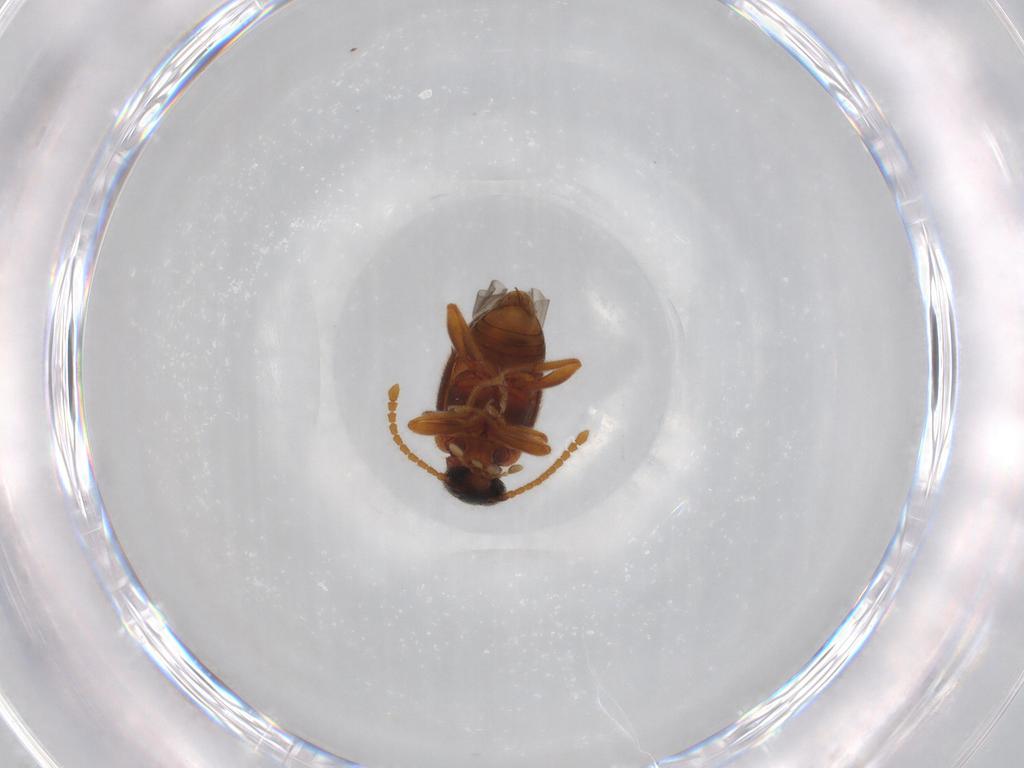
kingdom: Animalia
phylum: Arthropoda
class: Insecta
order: Coleoptera
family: Aderidae
